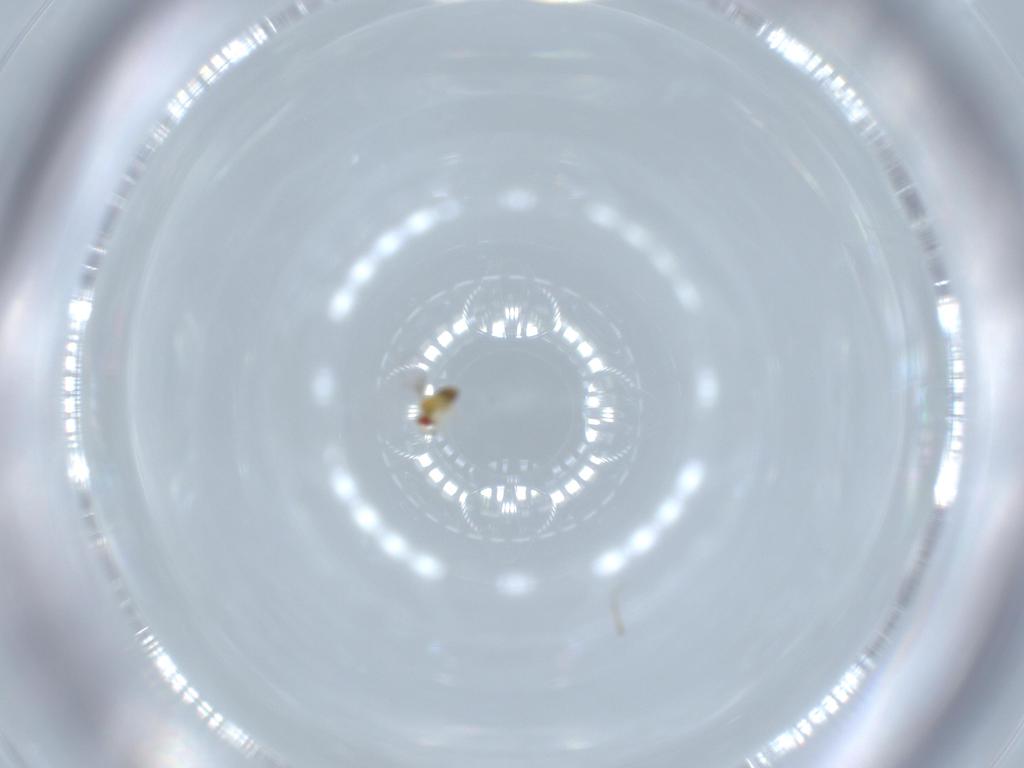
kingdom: Animalia
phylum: Arthropoda
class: Insecta
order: Hymenoptera
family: Trichogrammatidae
